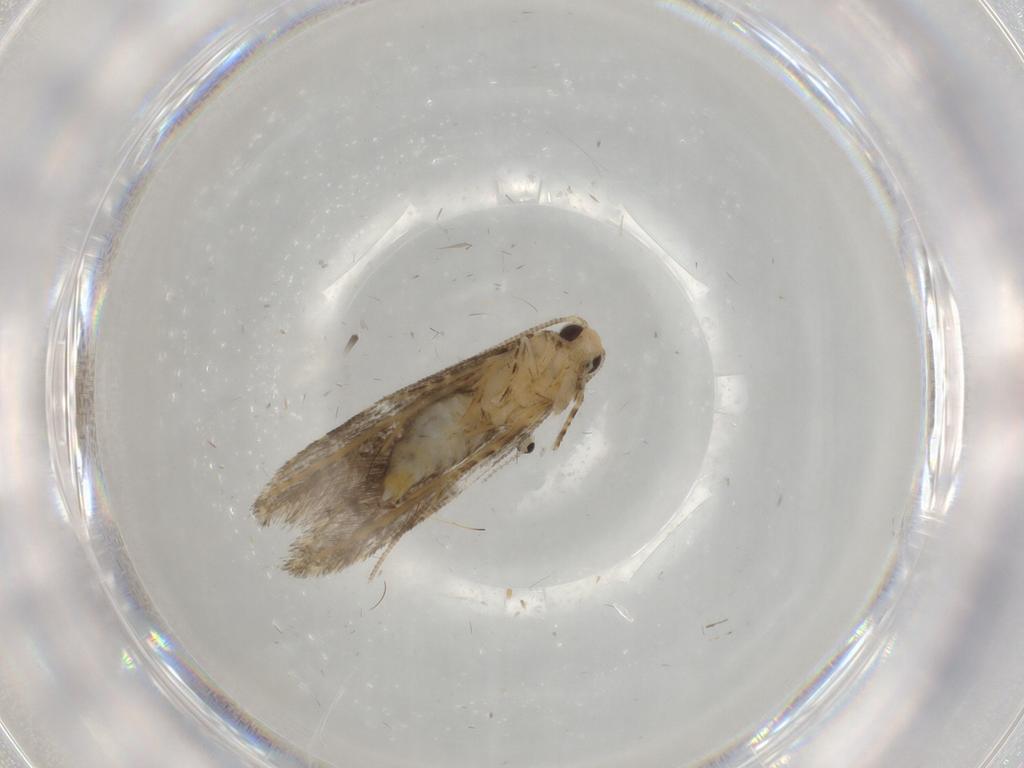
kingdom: Animalia
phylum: Arthropoda
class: Insecta
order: Lepidoptera
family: Tineidae
